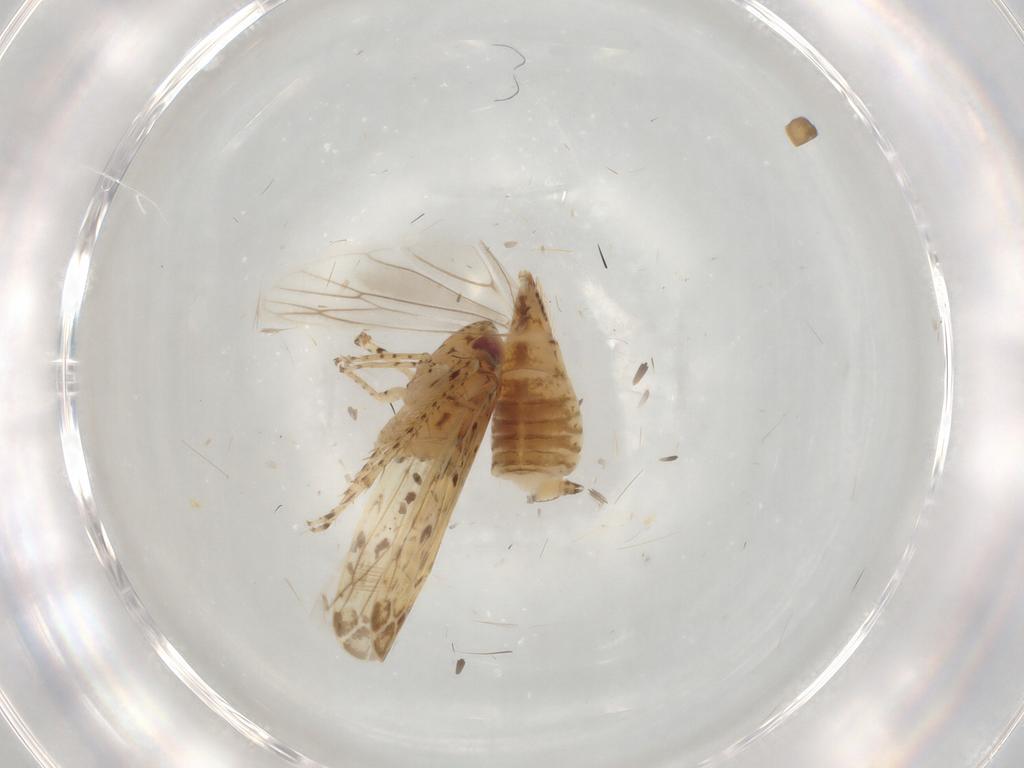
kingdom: Animalia
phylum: Arthropoda
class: Insecta
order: Hemiptera
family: Cicadellidae
